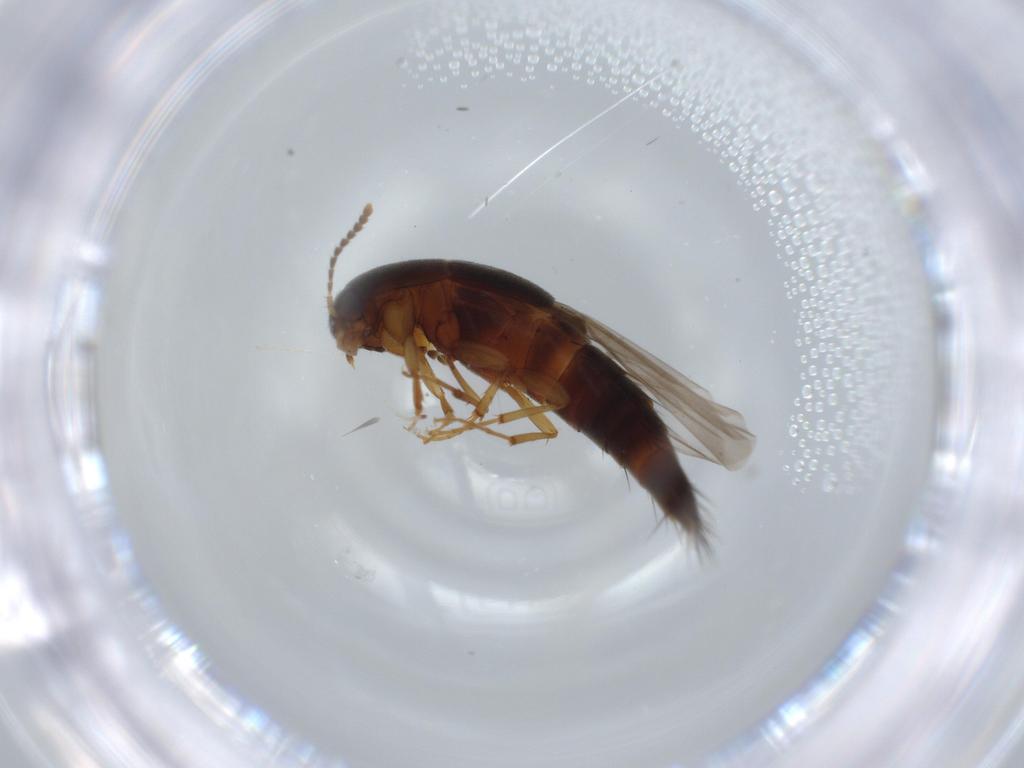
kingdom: Animalia
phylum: Arthropoda
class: Insecta
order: Coleoptera
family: Staphylinidae
